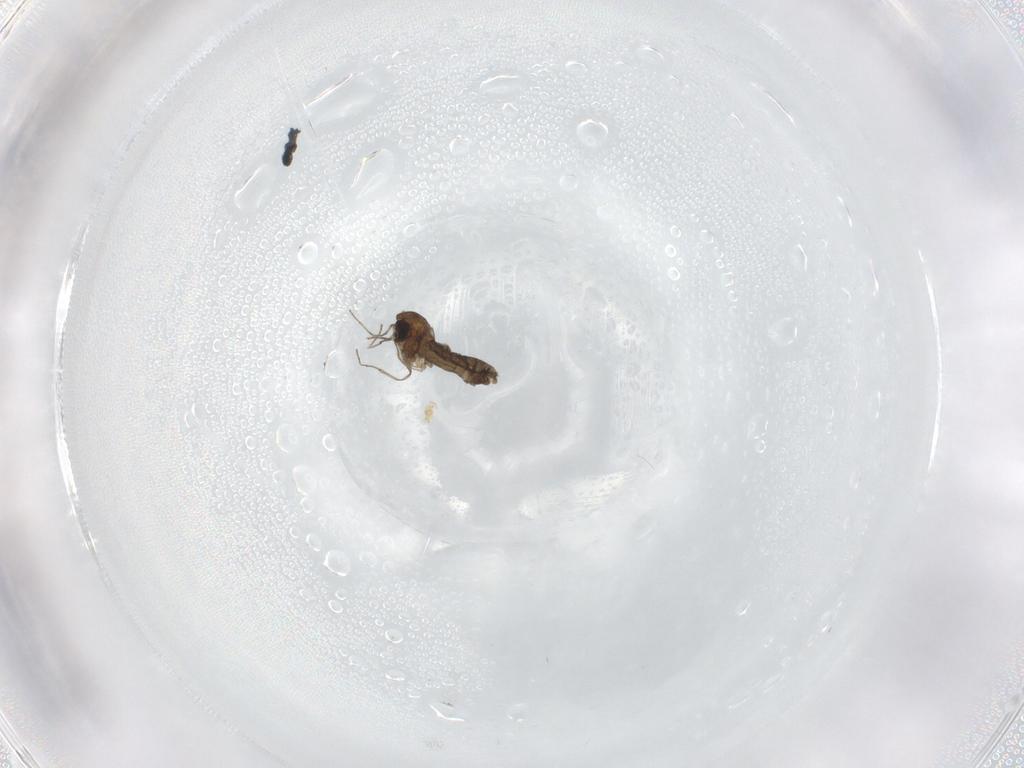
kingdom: Animalia
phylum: Arthropoda
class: Insecta
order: Diptera
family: Chironomidae
